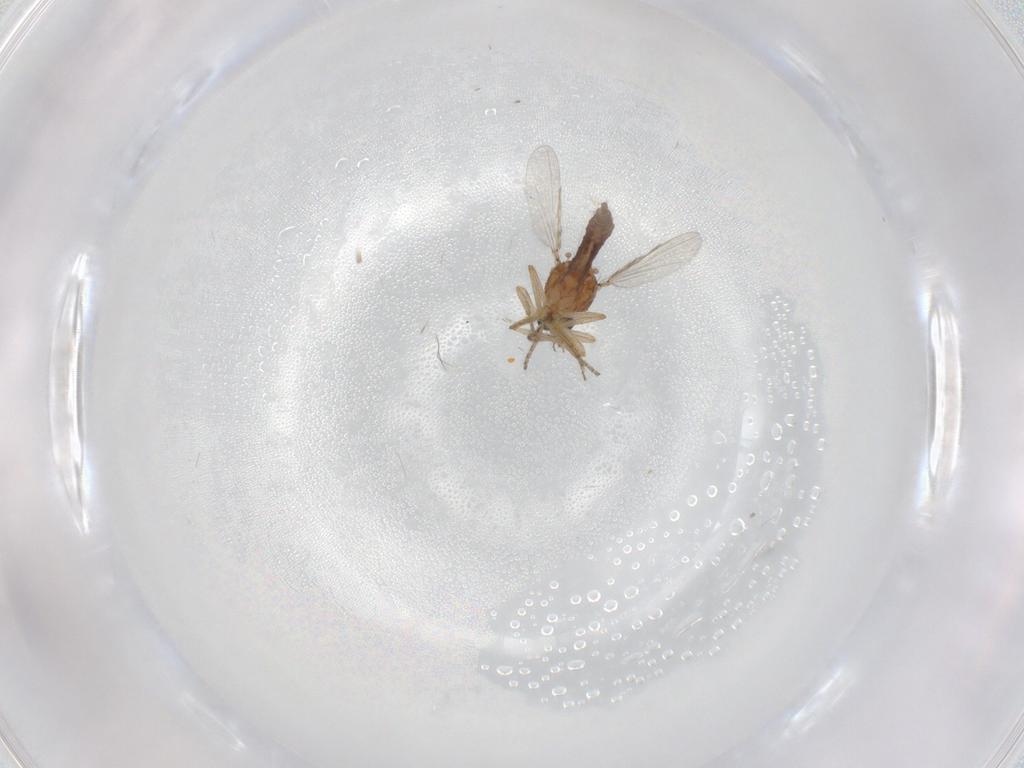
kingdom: Animalia
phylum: Arthropoda
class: Insecta
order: Diptera
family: Ceratopogonidae
